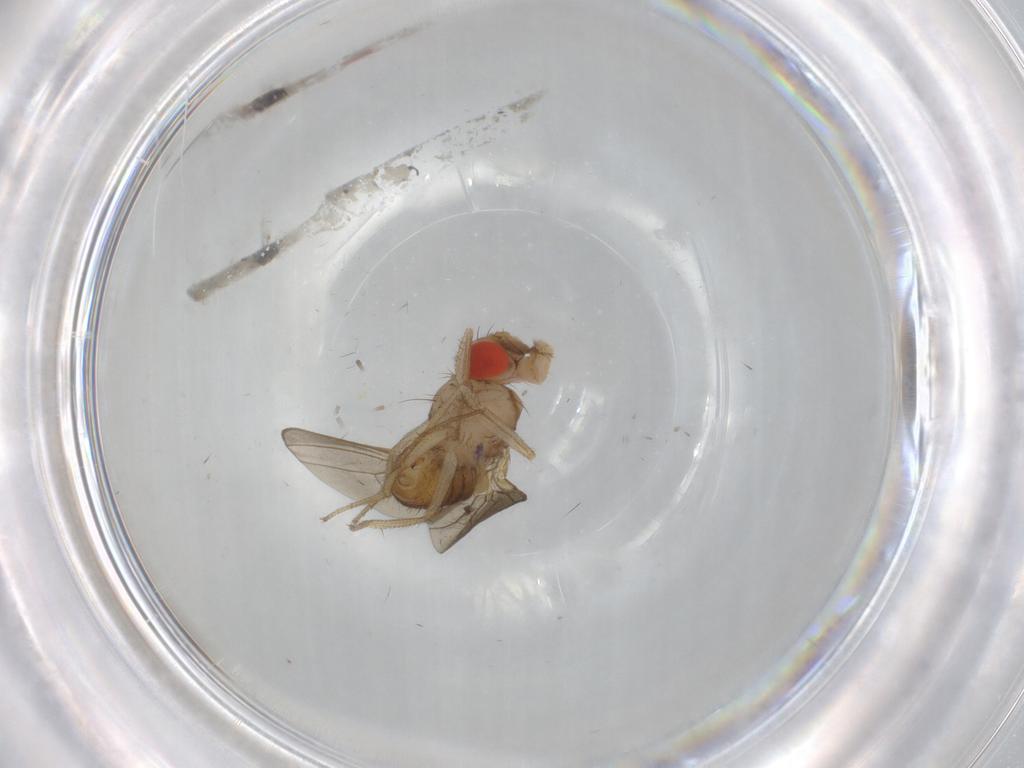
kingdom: Animalia
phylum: Arthropoda
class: Insecta
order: Diptera
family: Drosophilidae
